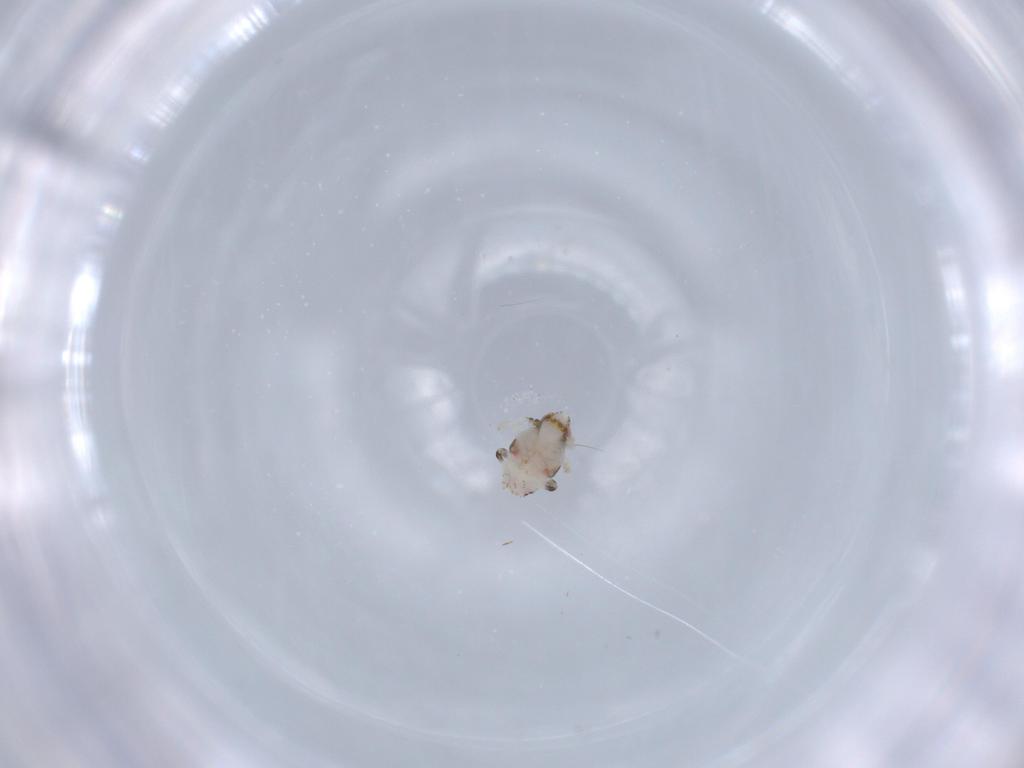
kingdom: Animalia
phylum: Arthropoda
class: Insecta
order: Hemiptera
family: Nogodinidae
